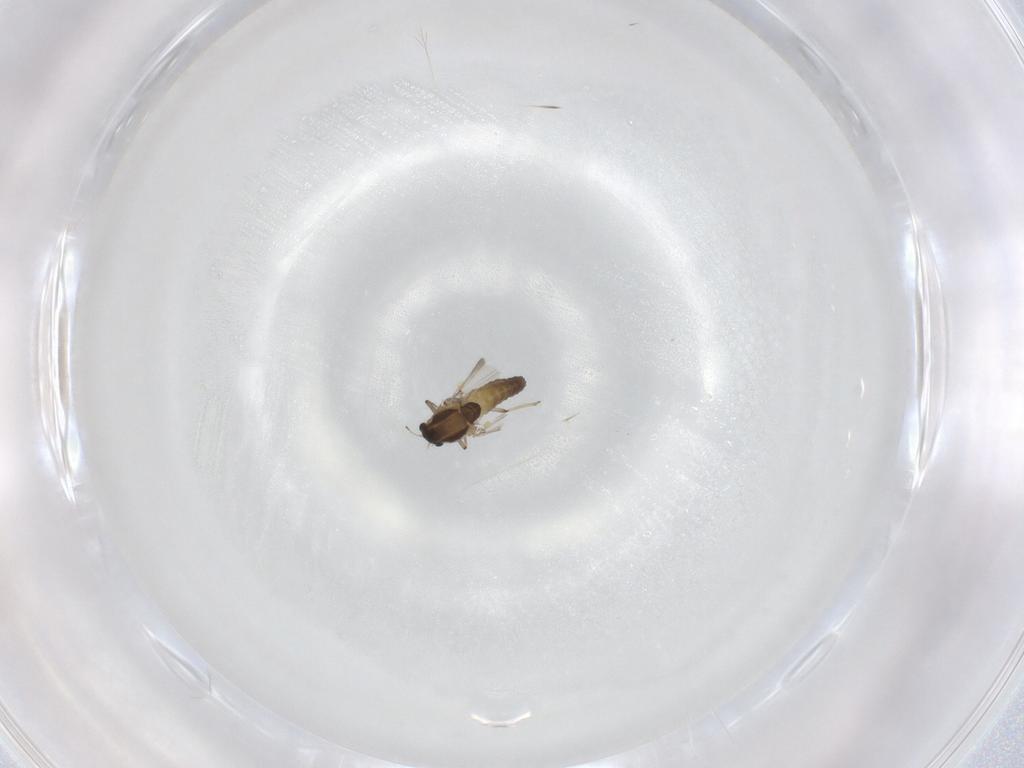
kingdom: Animalia
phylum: Arthropoda
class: Insecta
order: Diptera
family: Chironomidae
